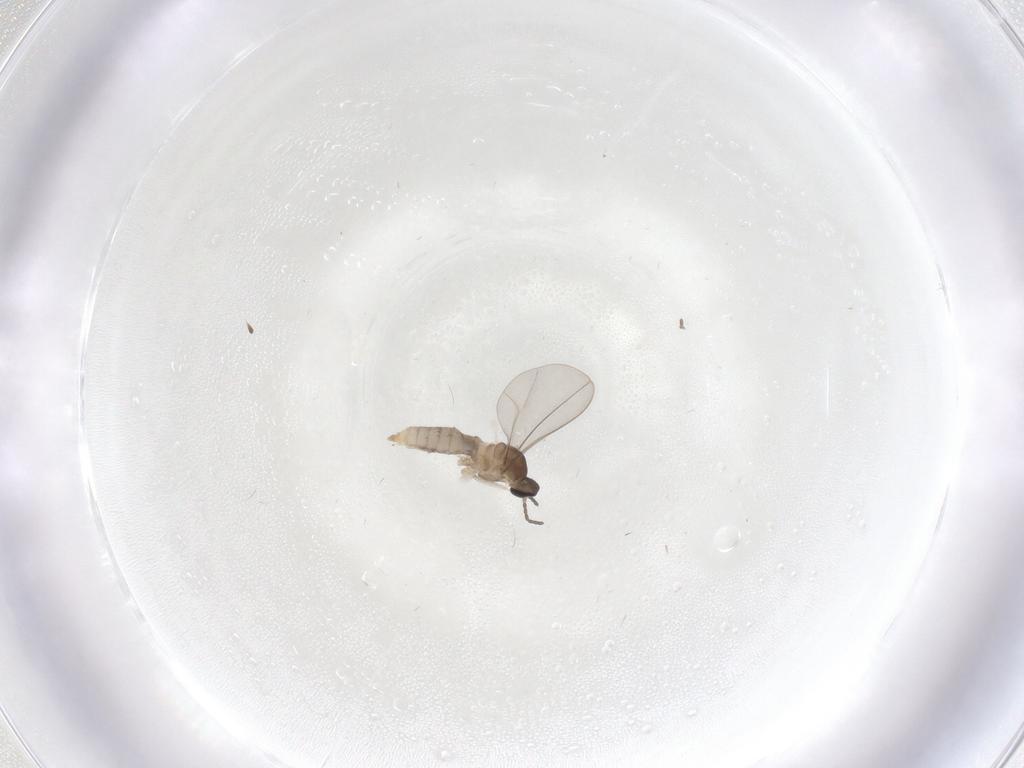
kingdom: Animalia
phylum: Arthropoda
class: Insecta
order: Diptera
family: Cecidomyiidae
